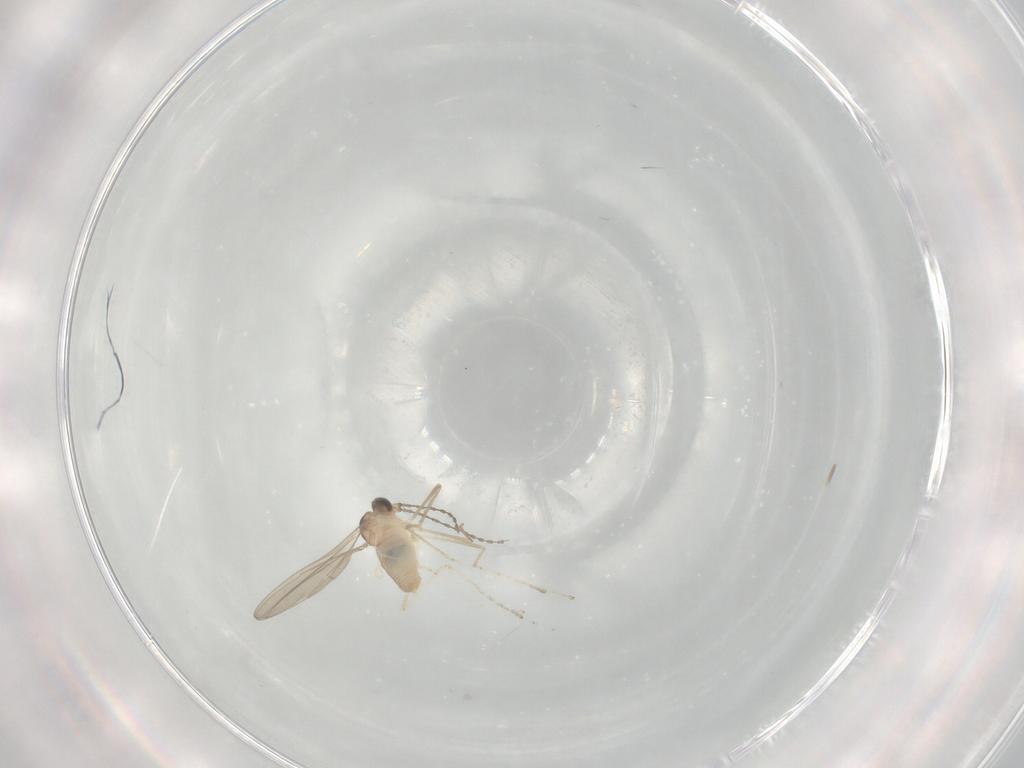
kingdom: Animalia
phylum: Arthropoda
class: Insecta
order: Diptera
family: Cecidomyiidae
